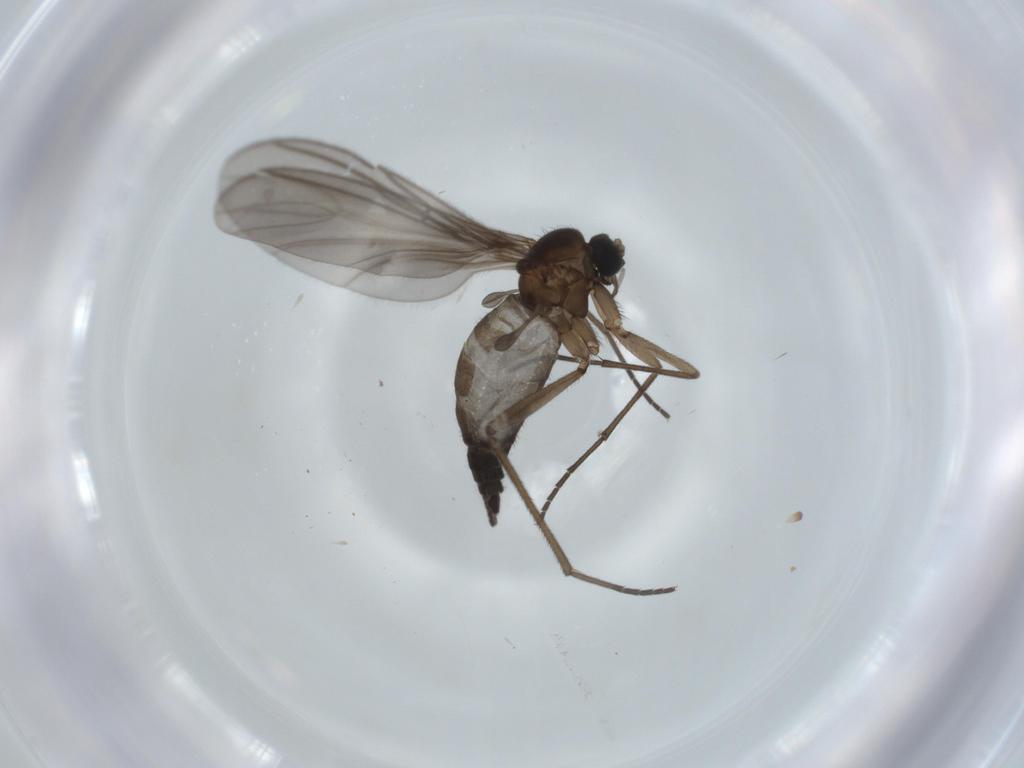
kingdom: Animalia
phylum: Arthropoda
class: Insecta
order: Diptera
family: Sciaridae
